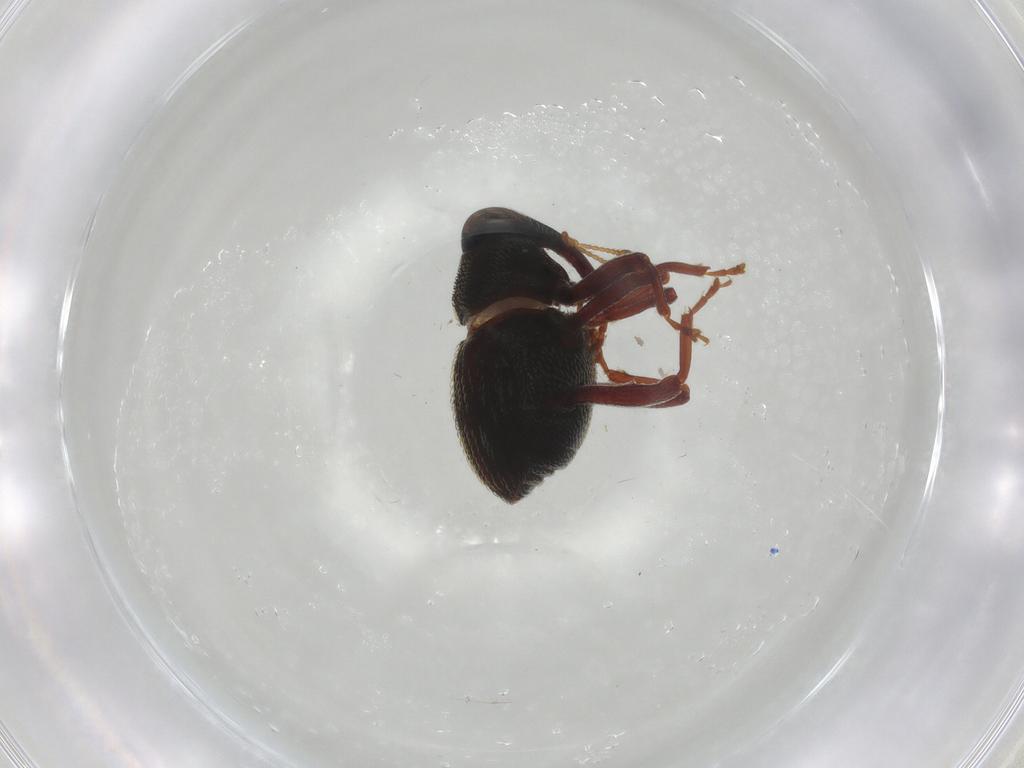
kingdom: Animalia
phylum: Arthropoda
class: Insecta
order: Coleoptera
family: Curculionidae
